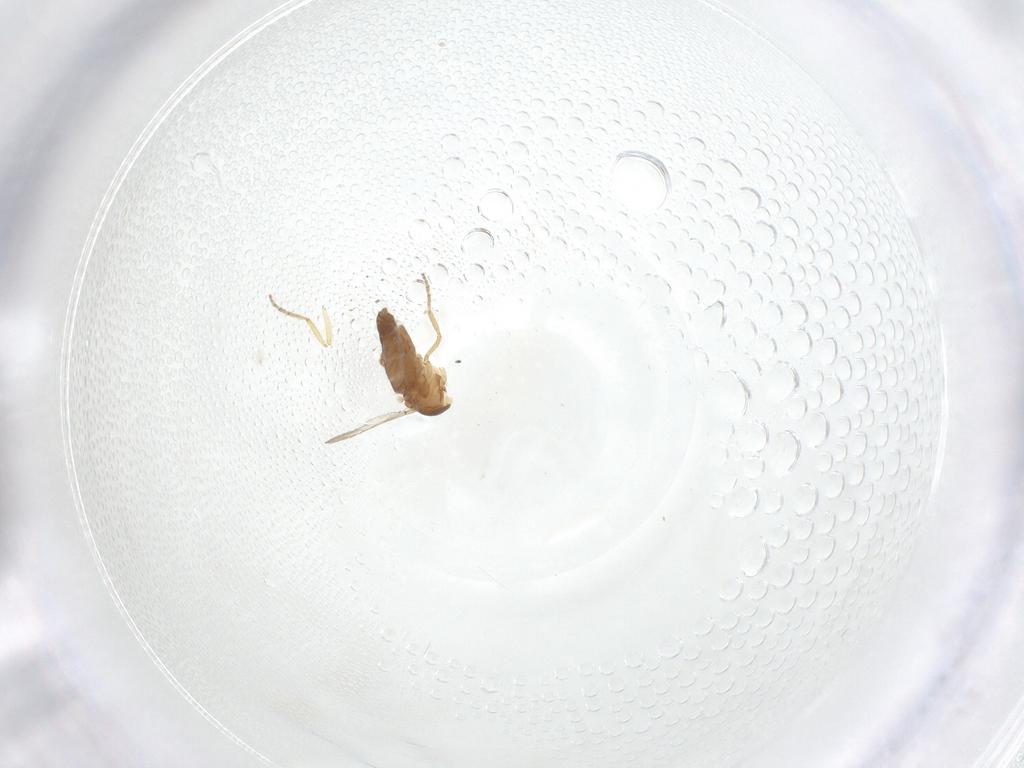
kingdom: Animalia
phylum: Arthropoda
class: Insecta
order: Diptera
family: Ceratopogonidae
